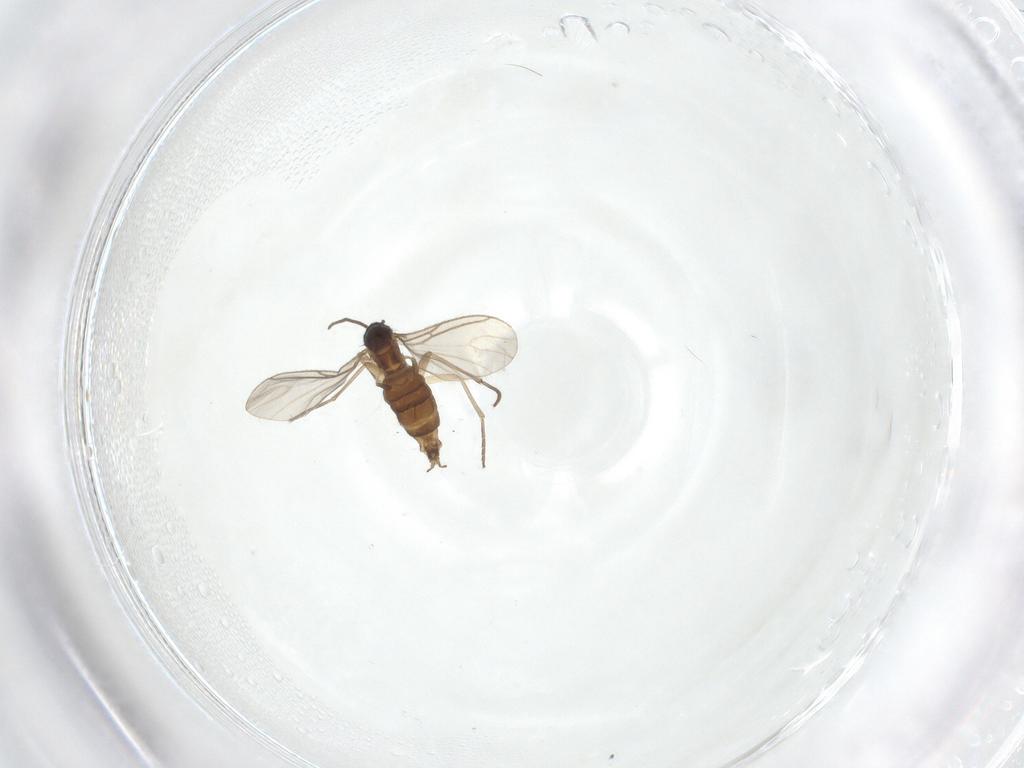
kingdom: Animalia
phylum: Arthropoda
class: Insecta
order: Diptera
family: Sciaridae
